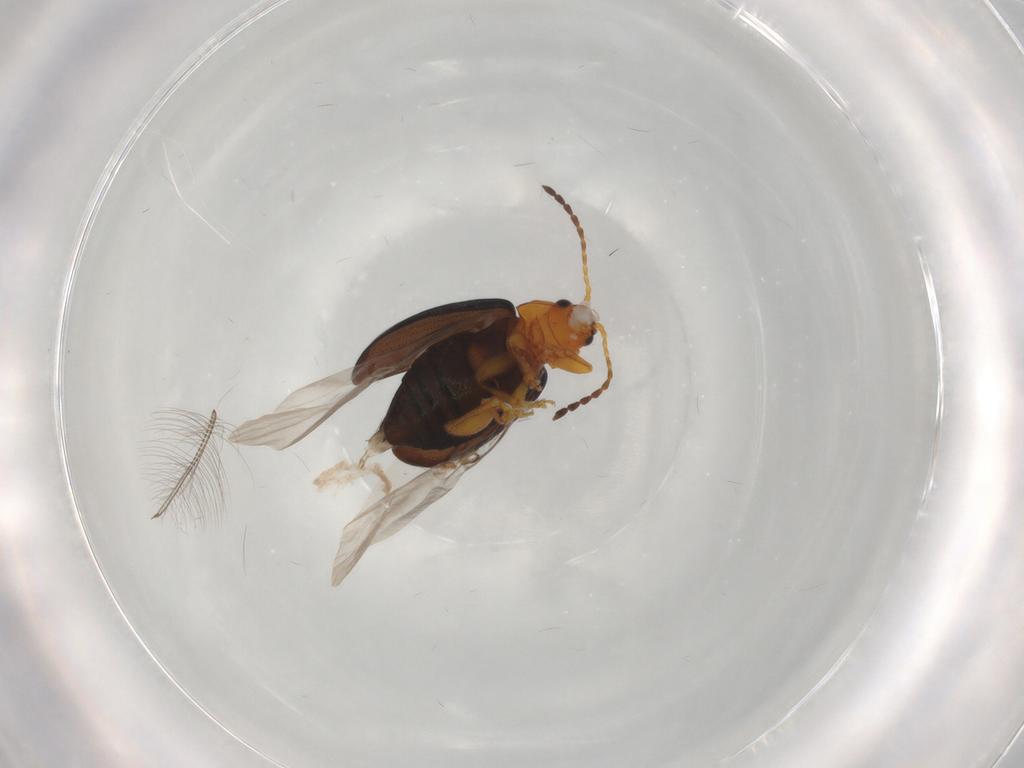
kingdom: Animalia
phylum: Arthropoda
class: Insecta
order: Coleoptera
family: Chrysomelidae
